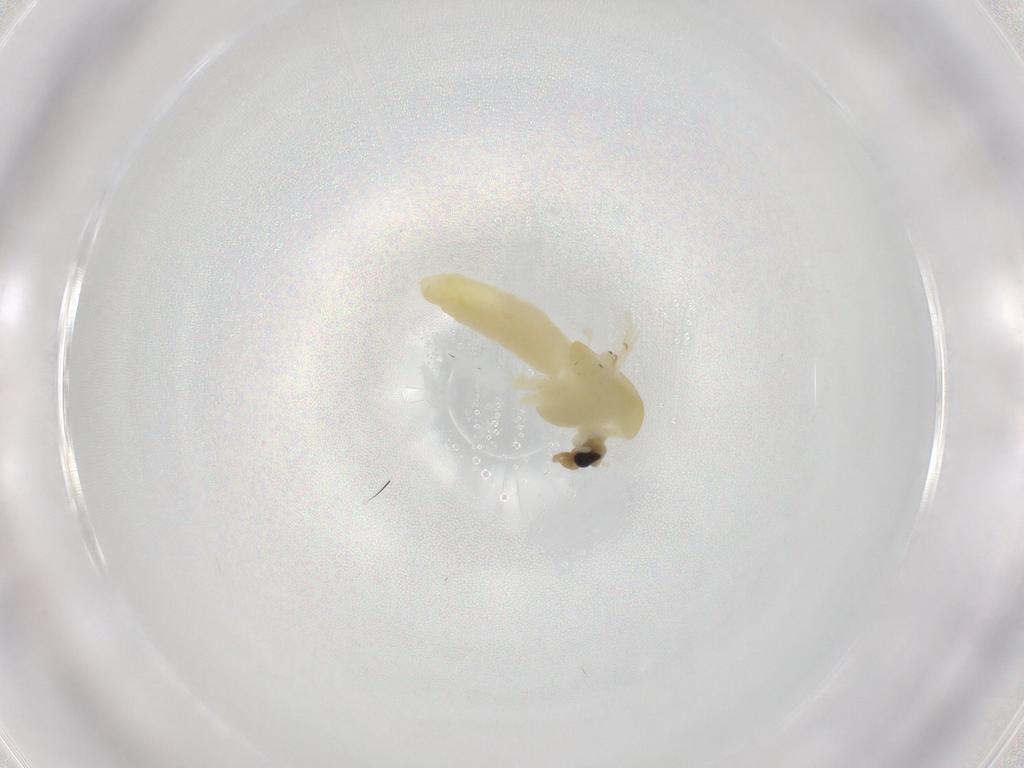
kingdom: Animalia
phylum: Arthropoda
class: Insecta
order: Diptera
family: Chironomidae
